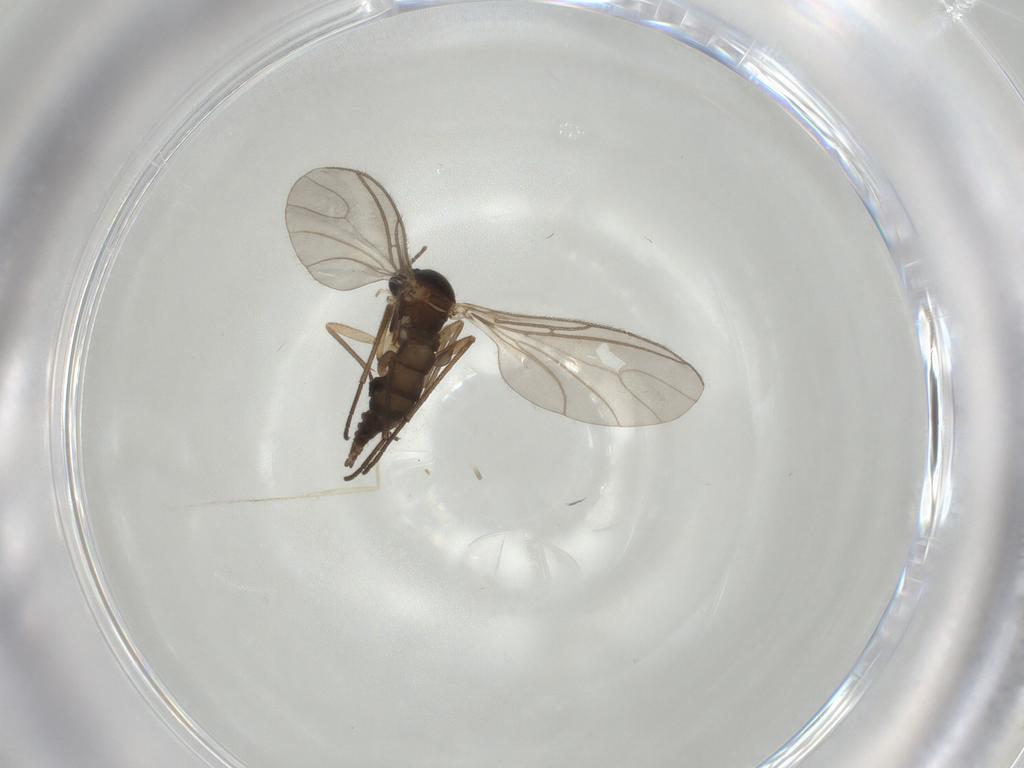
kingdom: Animalia
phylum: Arthropoda
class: Insecta
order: Diptera
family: Sciaridae
